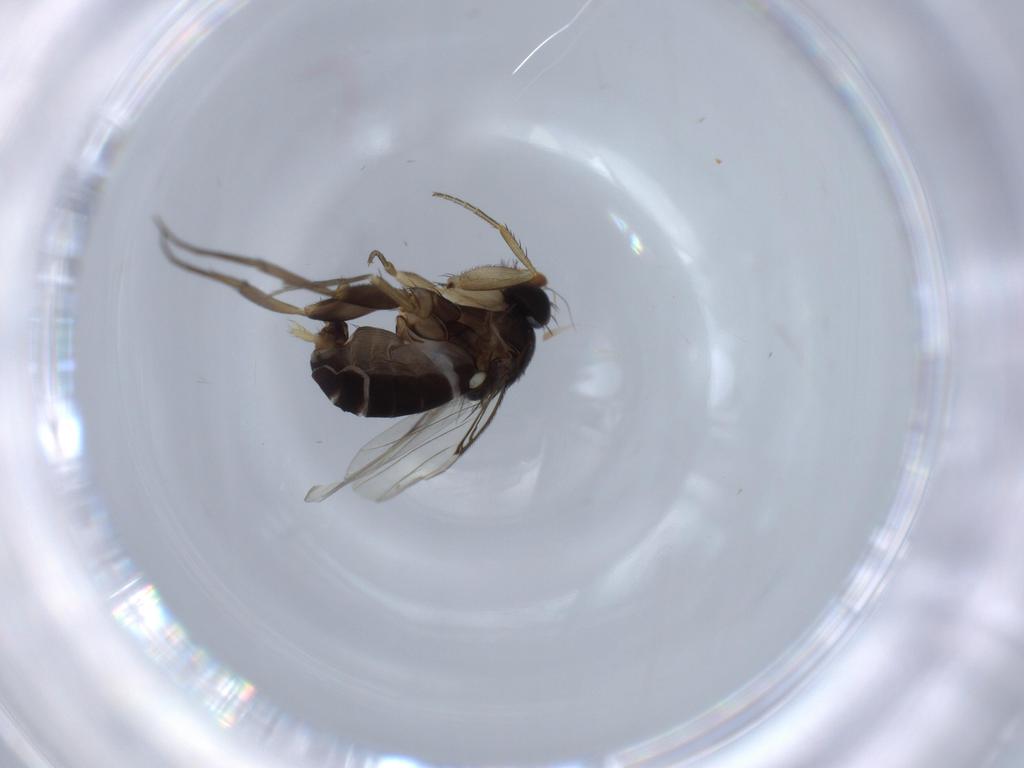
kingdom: Animalia
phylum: Arthropoda
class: Insecta
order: Diptera
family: Phoridae
